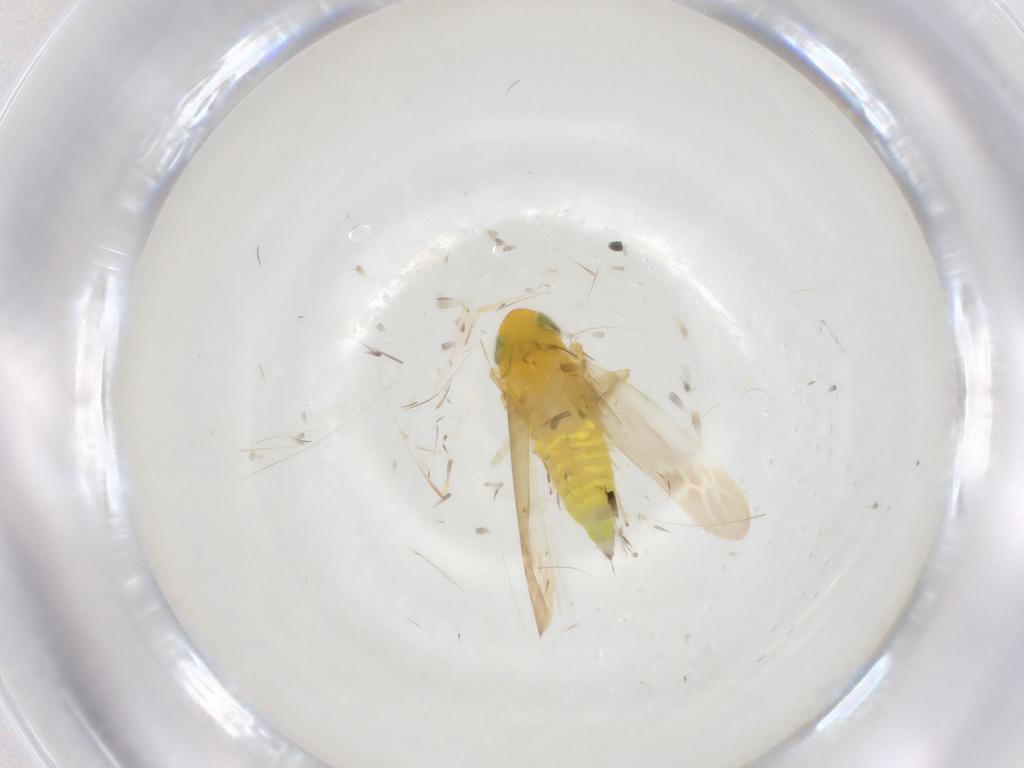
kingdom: Animalia
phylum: Arthropoda
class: Insecta
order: Hemiptera
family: Cicadellidae
